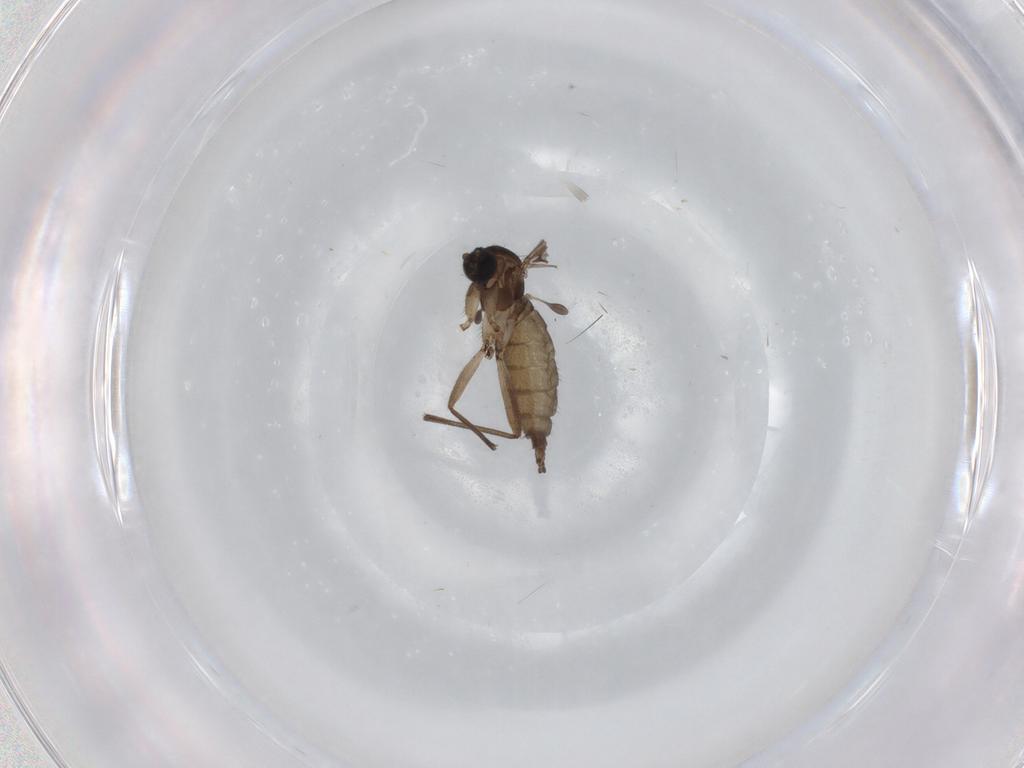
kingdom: Animalia
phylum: Arthropoda
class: Insecta
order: Diptera
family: Sciaridae
